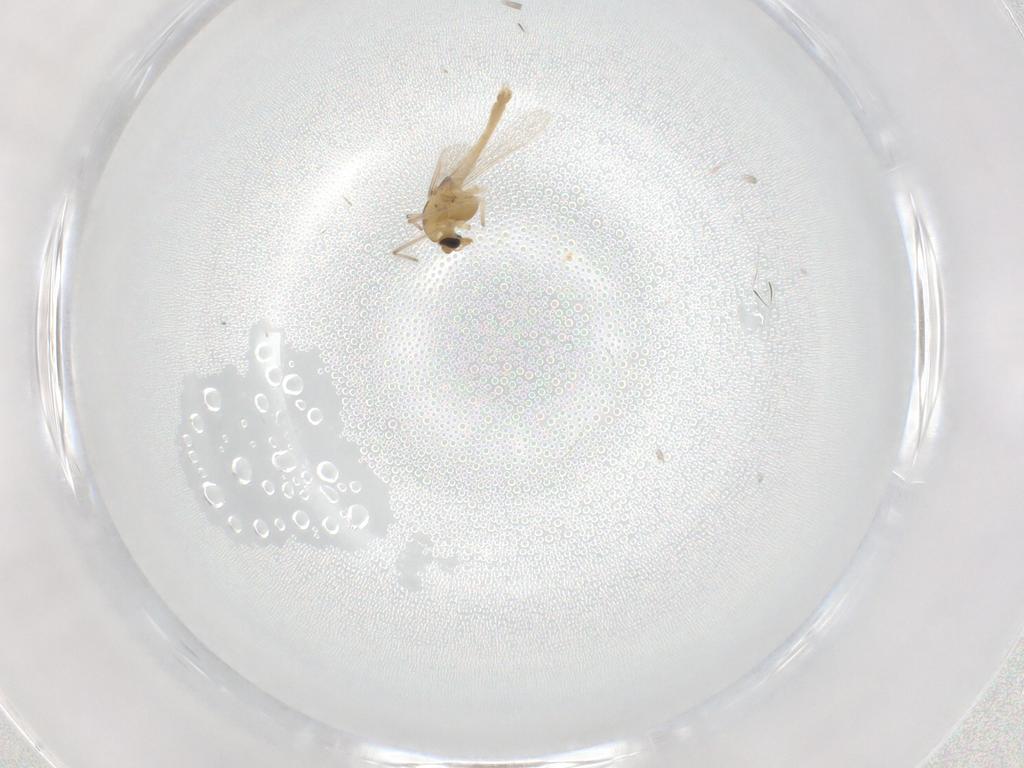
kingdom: Animalia
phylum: Arthropoda
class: Insecta
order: Diptera
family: Chironomidae
